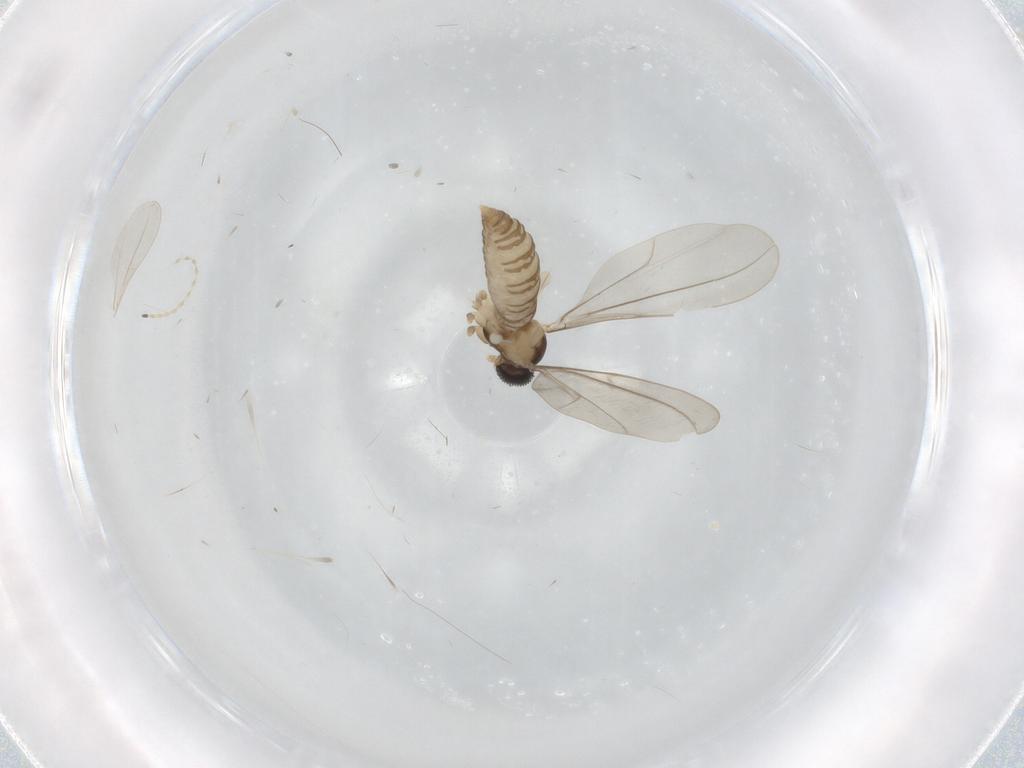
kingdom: Animalia
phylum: Arthropoda
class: Insecta
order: Diptera
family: Cecidomyiidae
